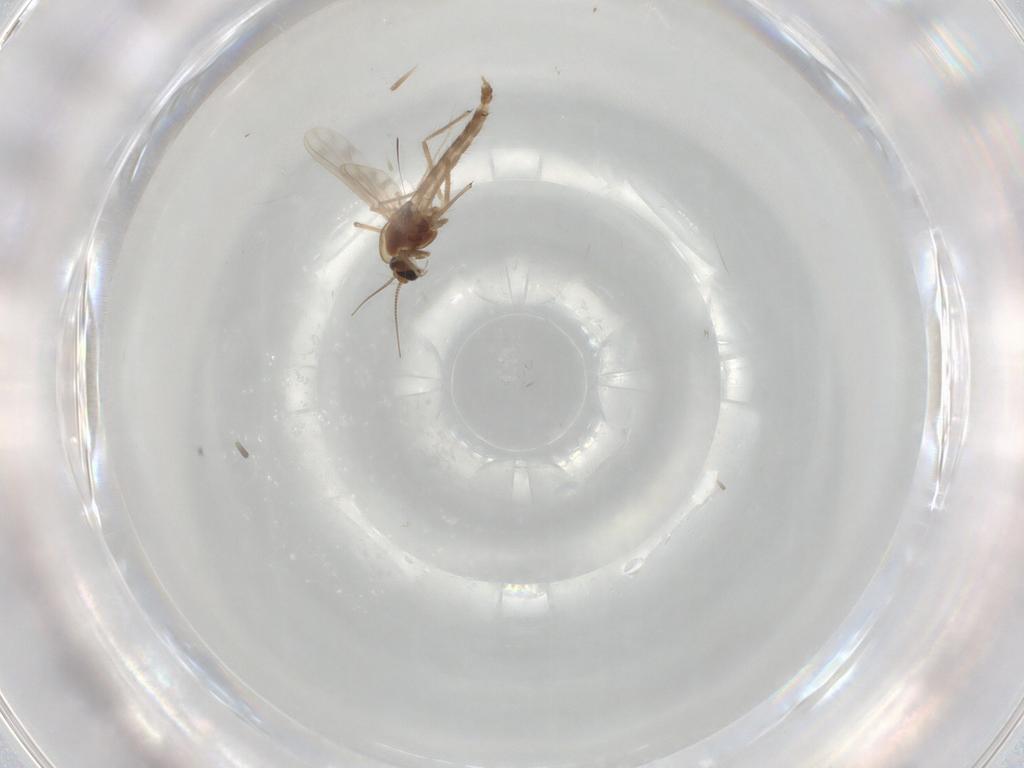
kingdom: Animalia
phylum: Arthropoda
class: Insecta
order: Diptera
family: Chironomidae
